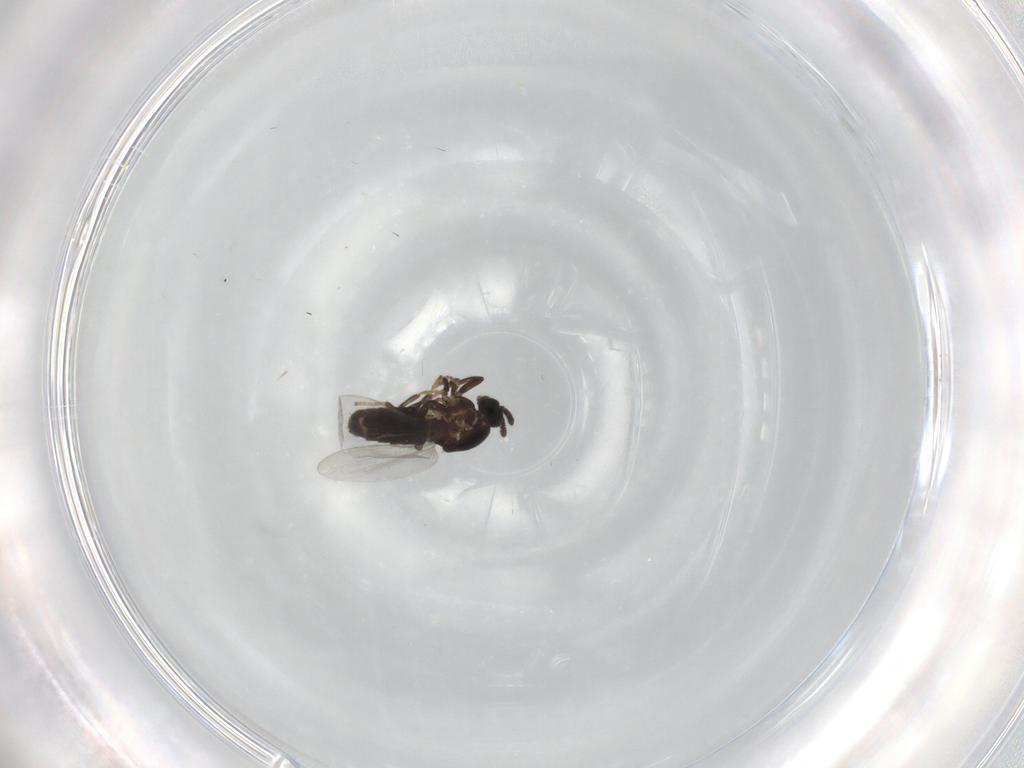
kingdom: Animalia
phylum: Arthropoda
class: Insecta
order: Diptera
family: Scatopsidae
